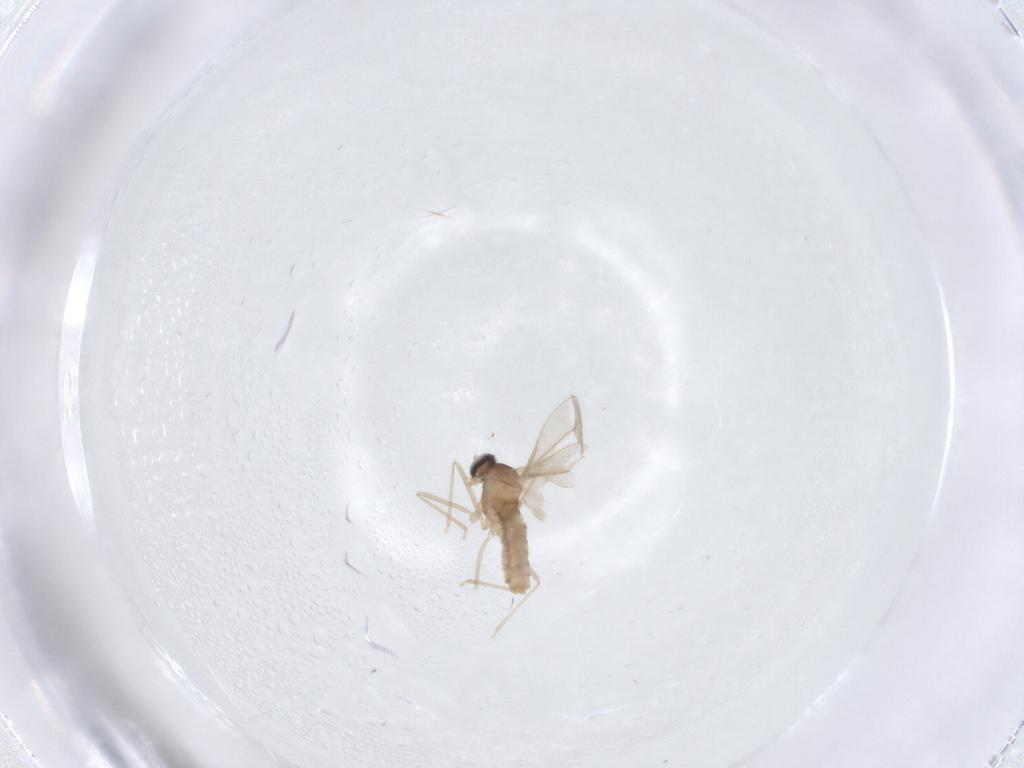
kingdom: Animalia
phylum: Arthropoda
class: Insecta
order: Diptera
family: Cecidomyiidae
